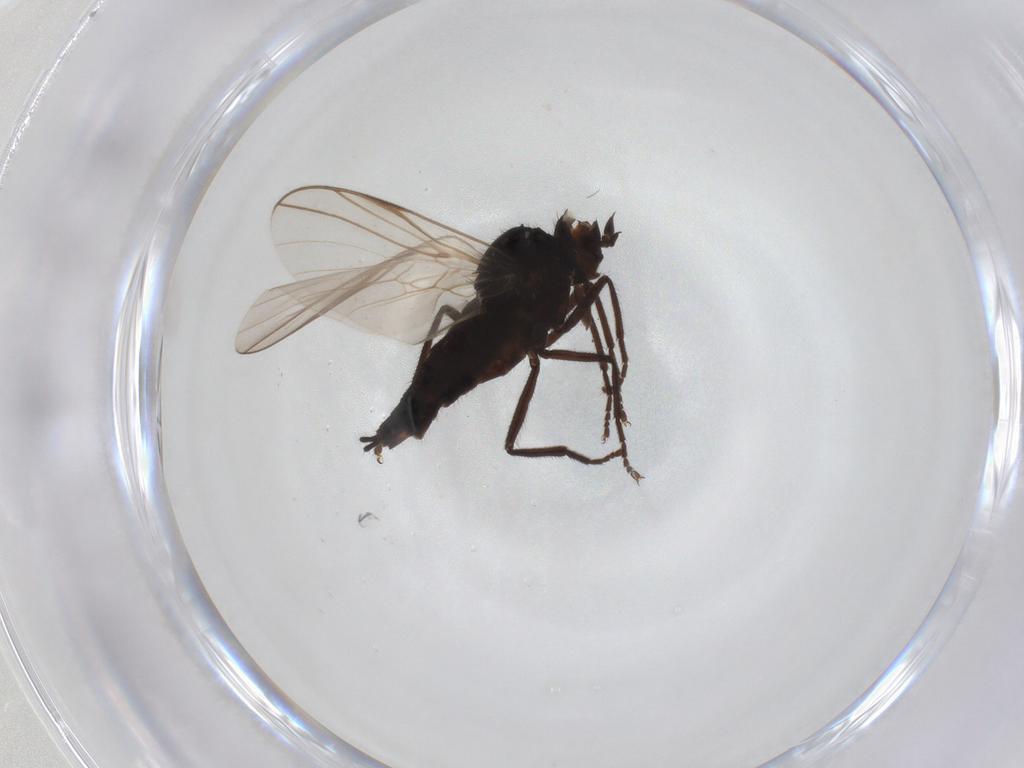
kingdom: Animalia
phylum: Arthropoda
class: Insecta
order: Diptera
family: Empididae
